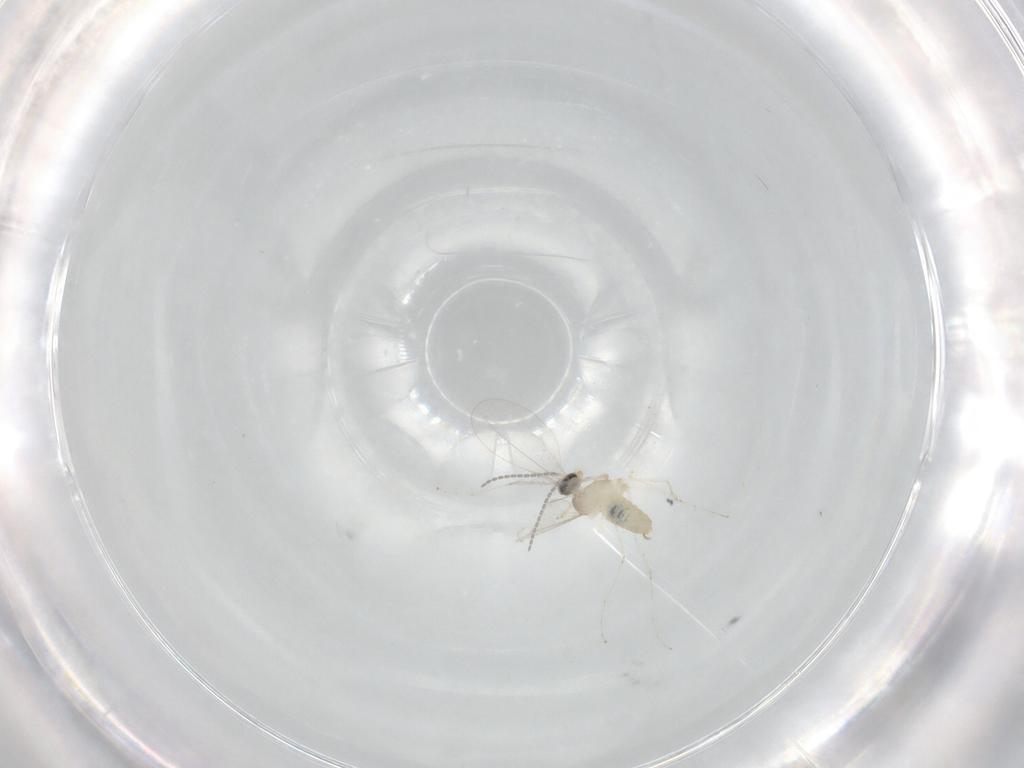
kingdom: Animalia
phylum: Arthropoda
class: Insecta
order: Diptera
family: Cecidomyiidae
